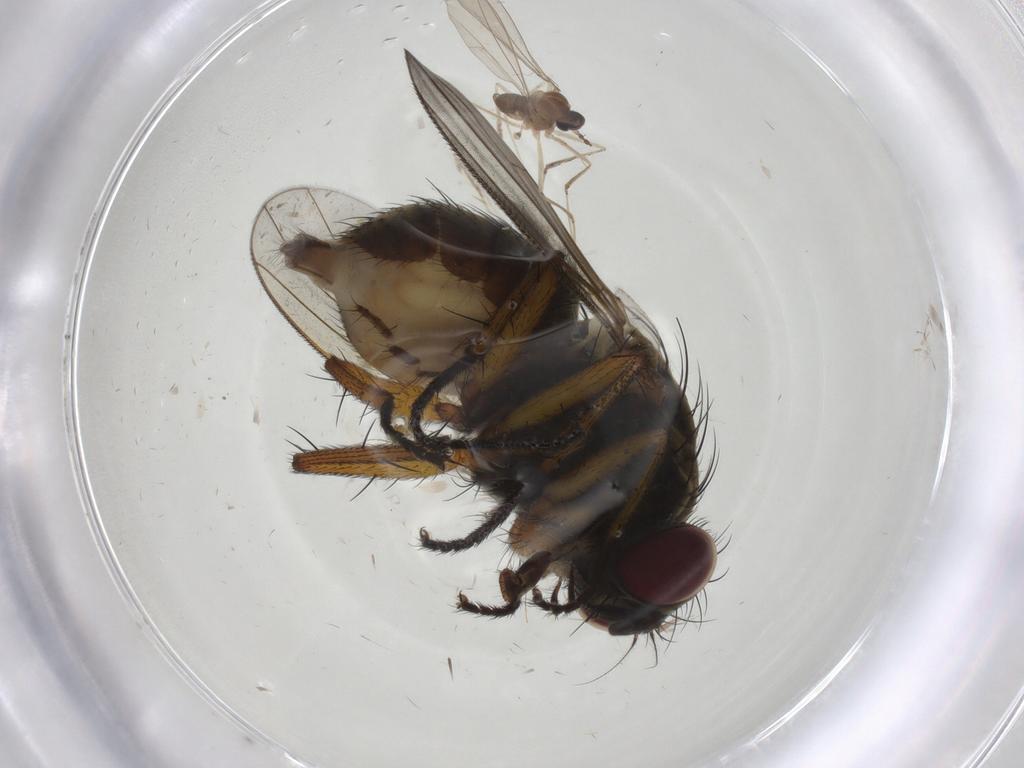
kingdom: Animalia
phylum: Arthropoda
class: Insecta
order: Diptera
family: Muscidae
